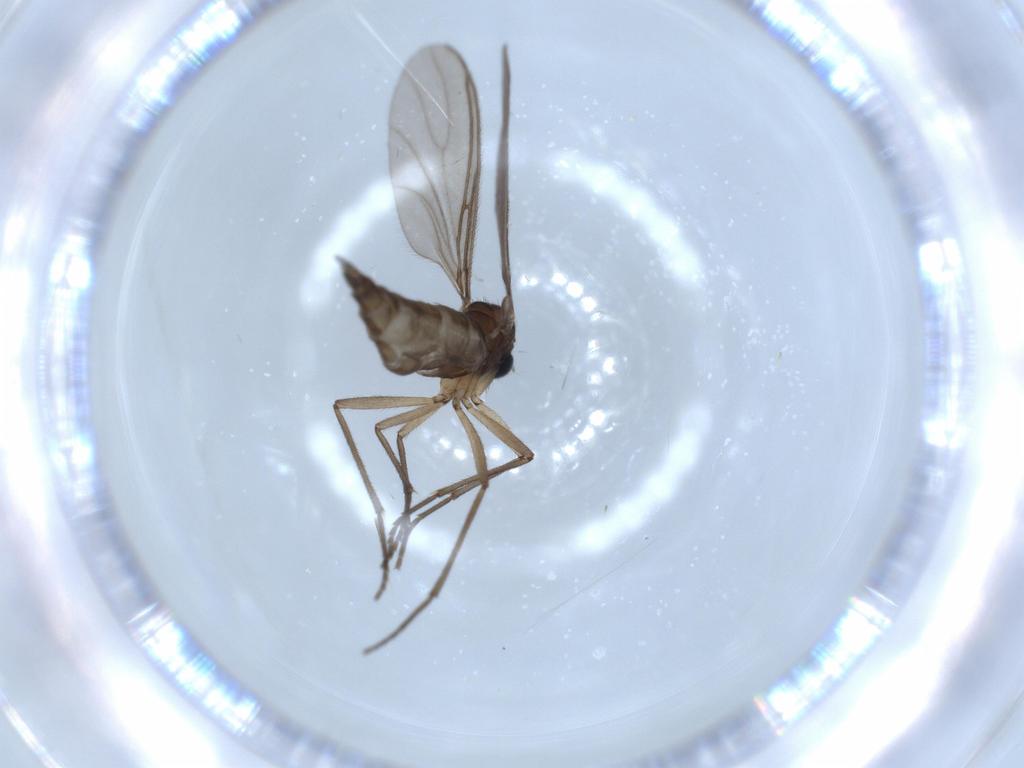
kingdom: Animalia
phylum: Arthropoda
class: Insecta
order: Diptera
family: Sciaridae
